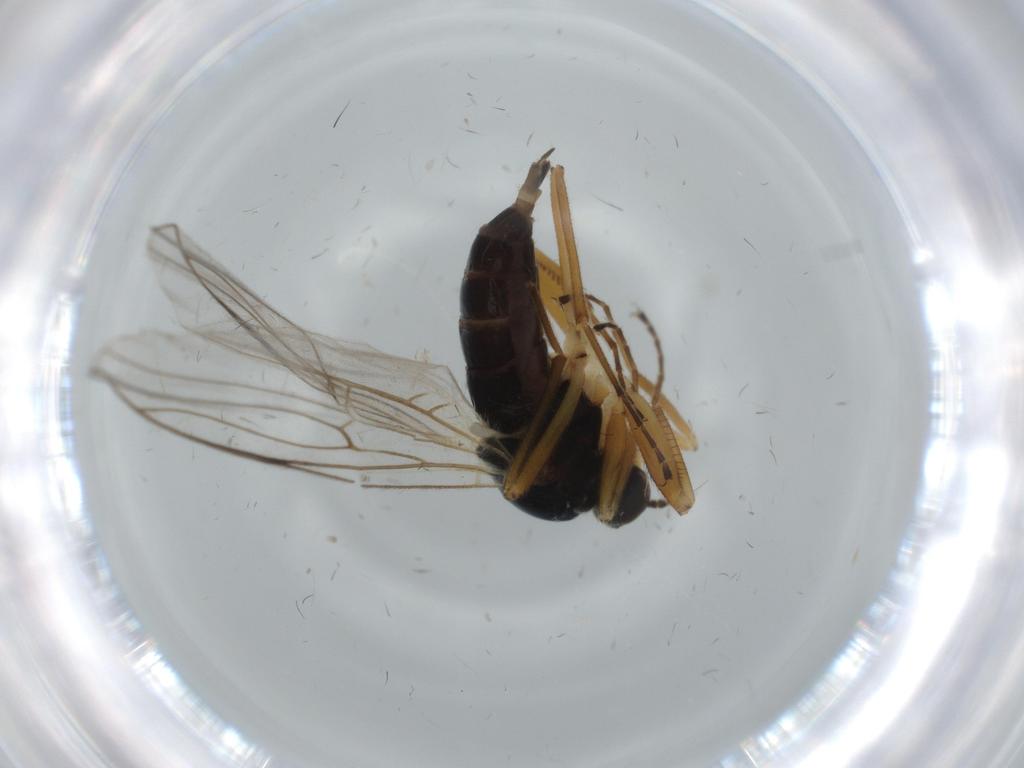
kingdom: Animalia
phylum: Arthropoda
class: Insecta
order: Diptera
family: Hybotidae
